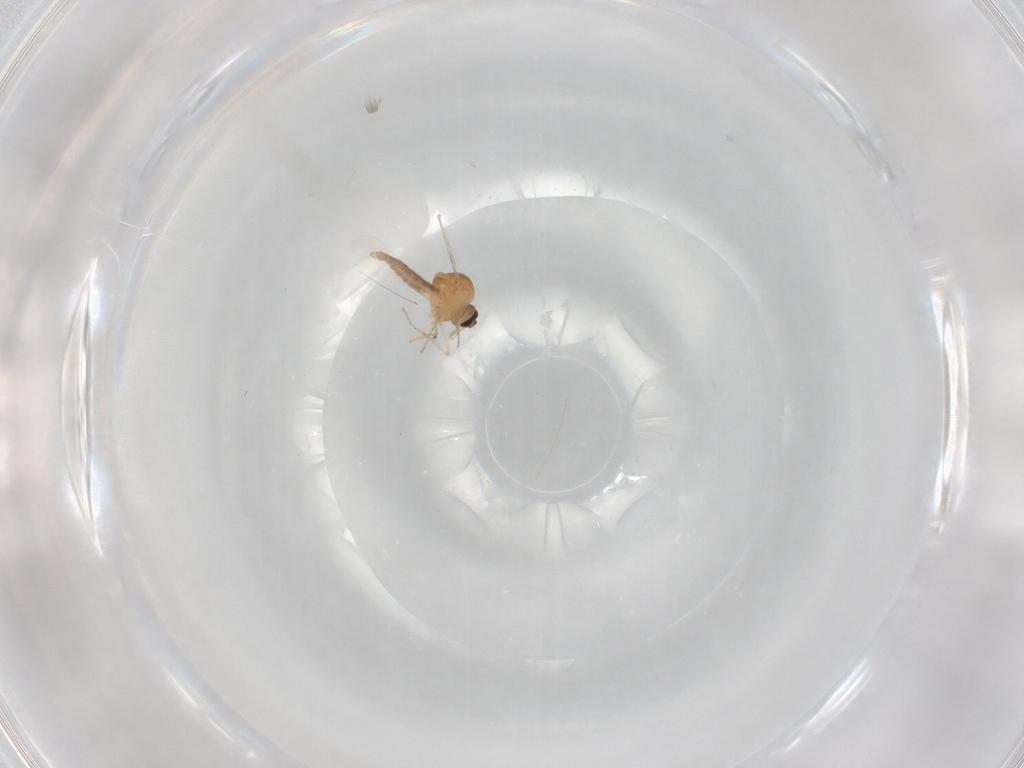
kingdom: Animalia
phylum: Arthropoda
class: Insecta
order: Diptera
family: Ceratopogonidae
